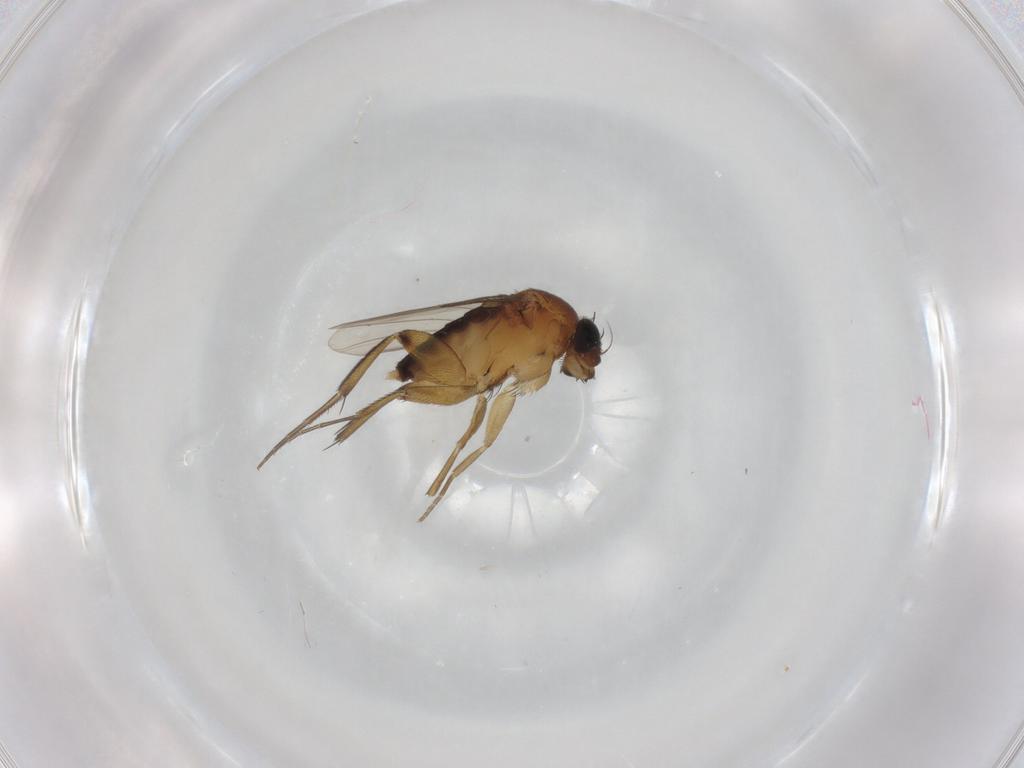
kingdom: Animalia
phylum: Arthropoda
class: Insecta
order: Diptera
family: Phoridae
